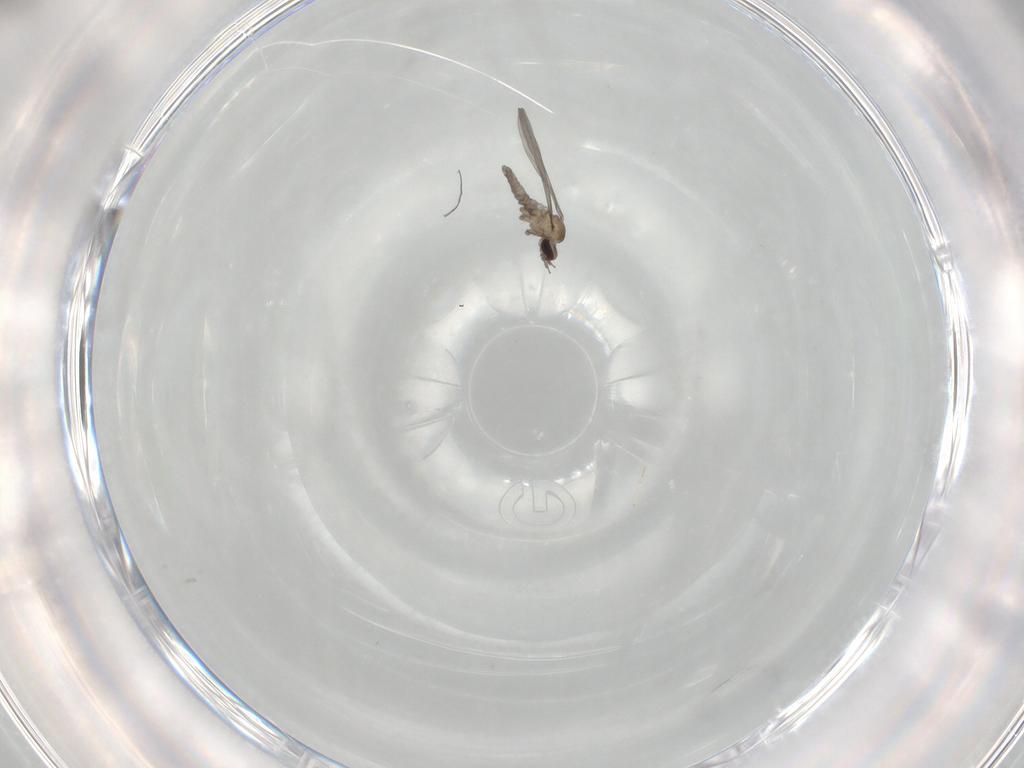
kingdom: Animalia
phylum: Arthropoda
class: Insecta
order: Diptera
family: Cecidomyiidae
